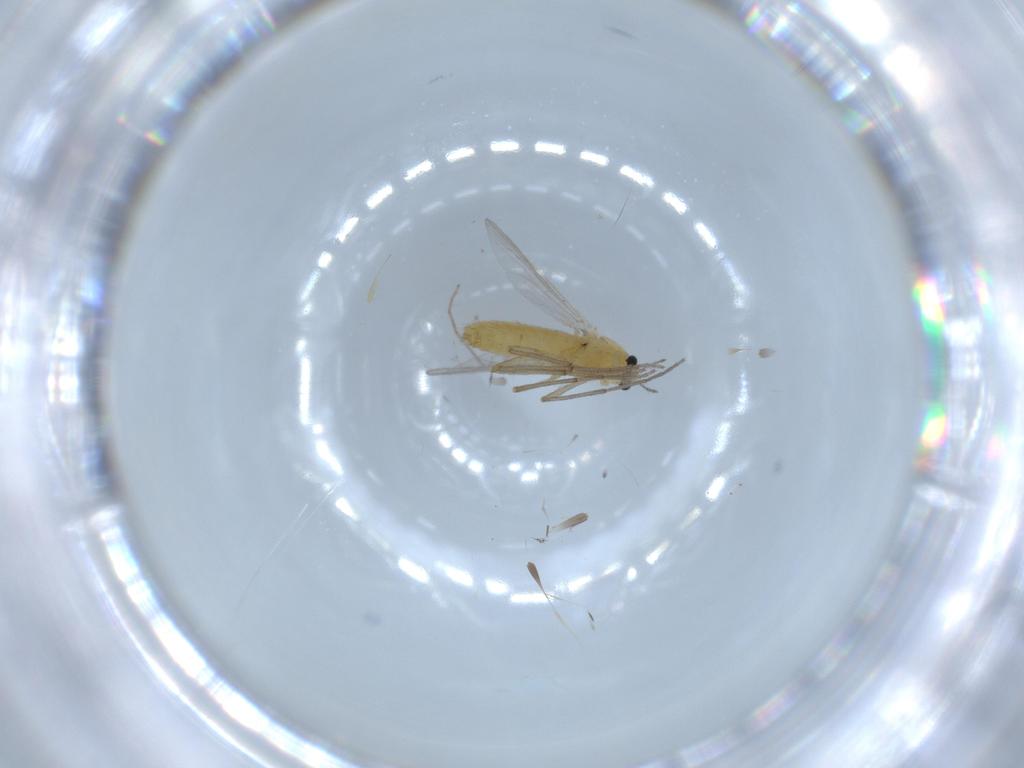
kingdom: Animalia
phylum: Arthropoda
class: Insecta
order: Diptera
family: Chironomidae
